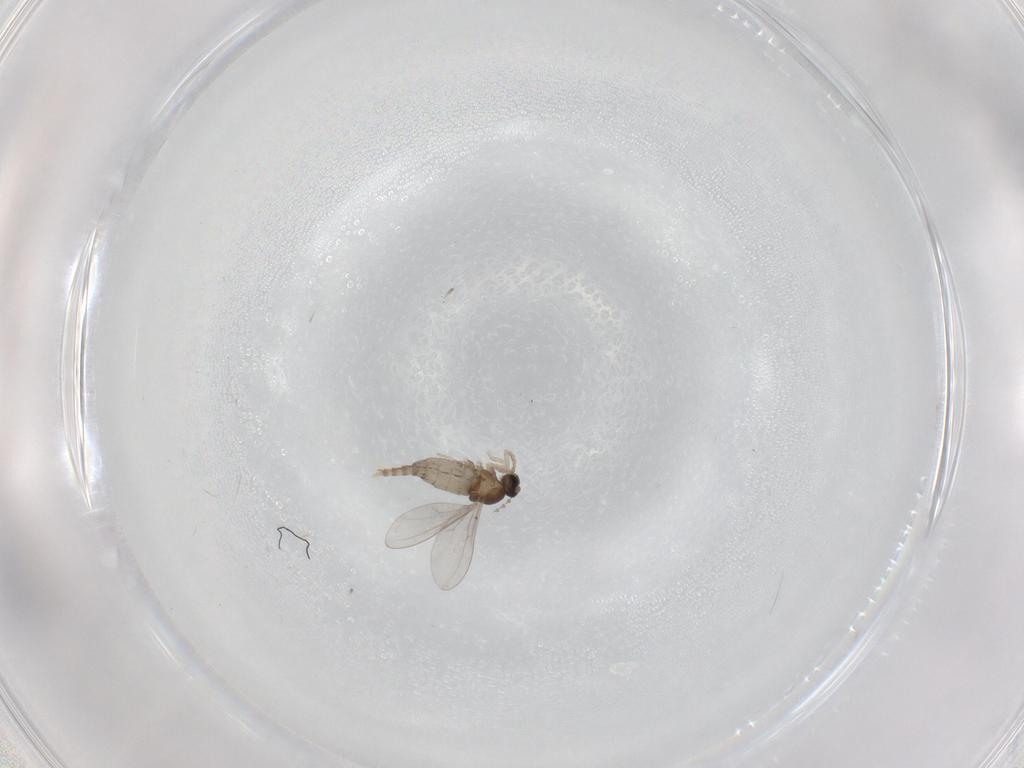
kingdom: Animalia
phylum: Arthropoda
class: Insecta
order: Diptera
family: Cecidomyiidae
